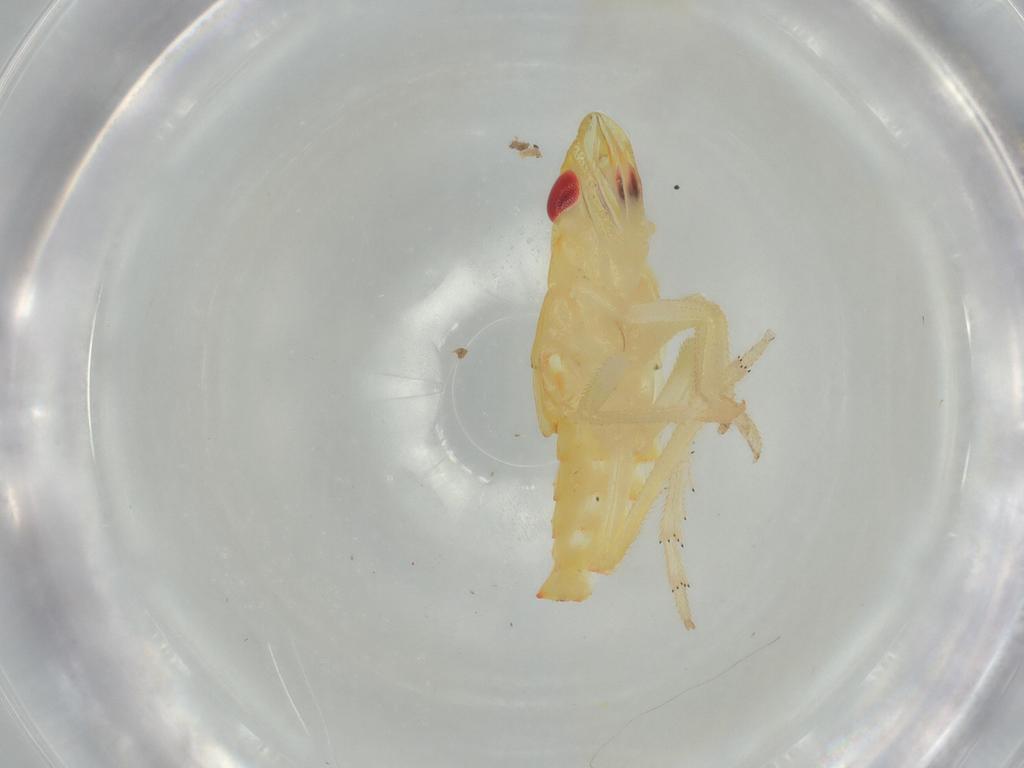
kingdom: Animalia
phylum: Arthropoda
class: Insecta
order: Hemiptera
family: Tropiduchidae
